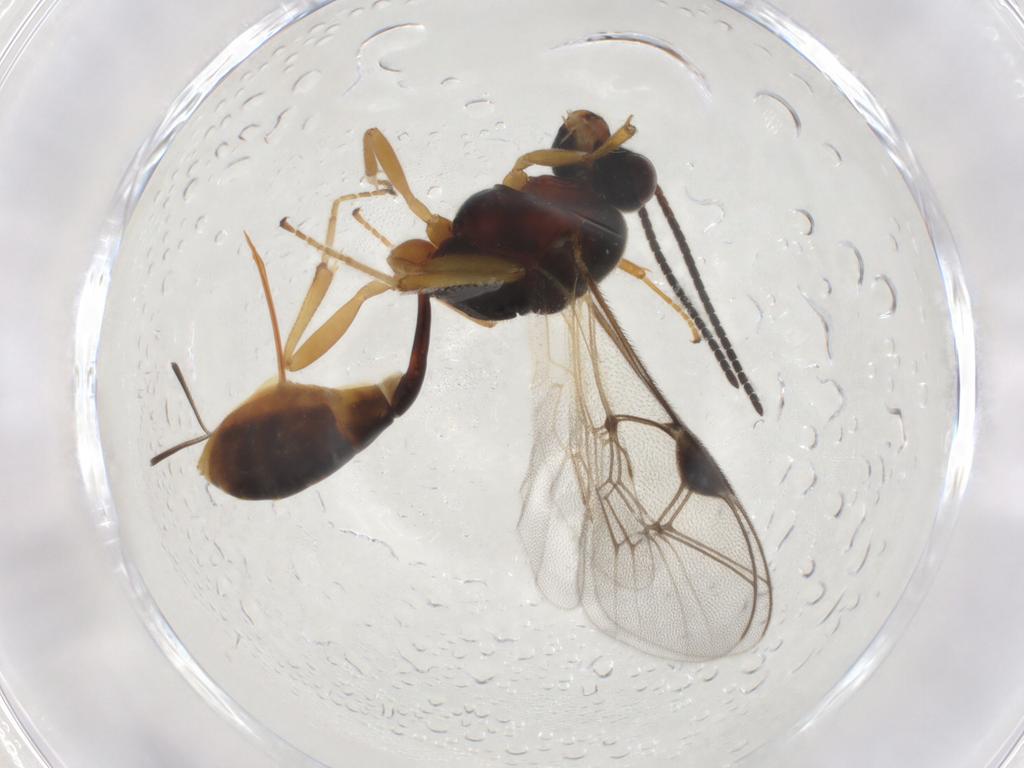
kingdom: Animalia
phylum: Arthropoda
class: Insecta
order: Hymenoptera
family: Ichneumonidae
